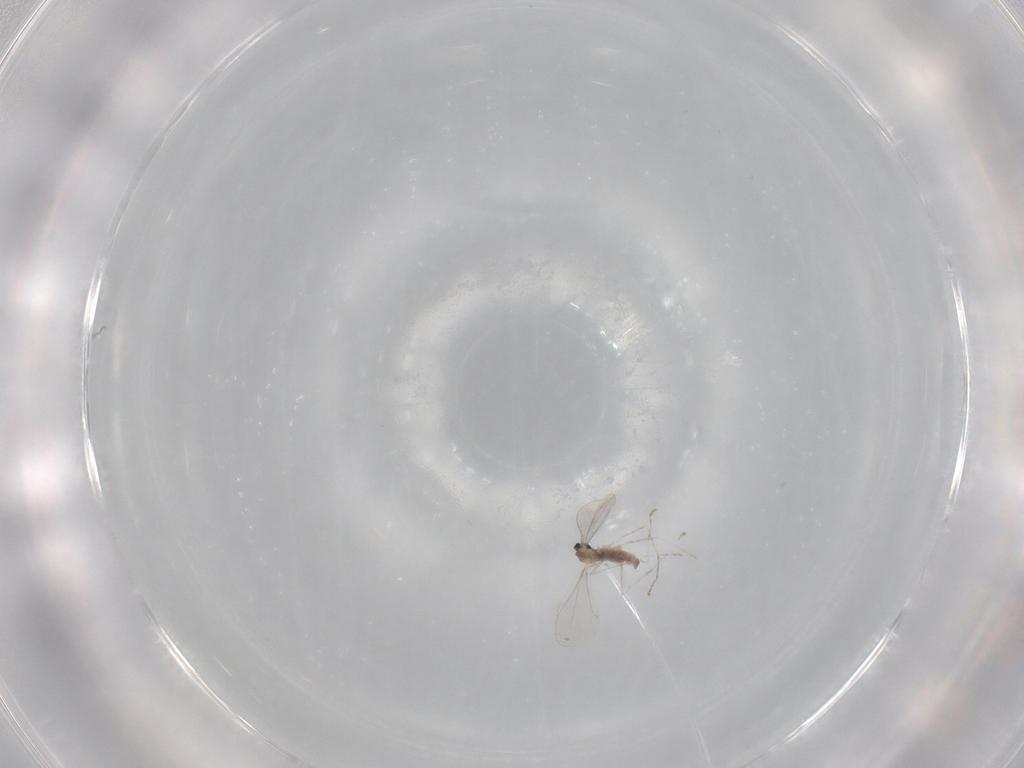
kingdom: Animalia
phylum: Arthropoda
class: Insecta
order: Diptera
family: Cecidomyiidae
